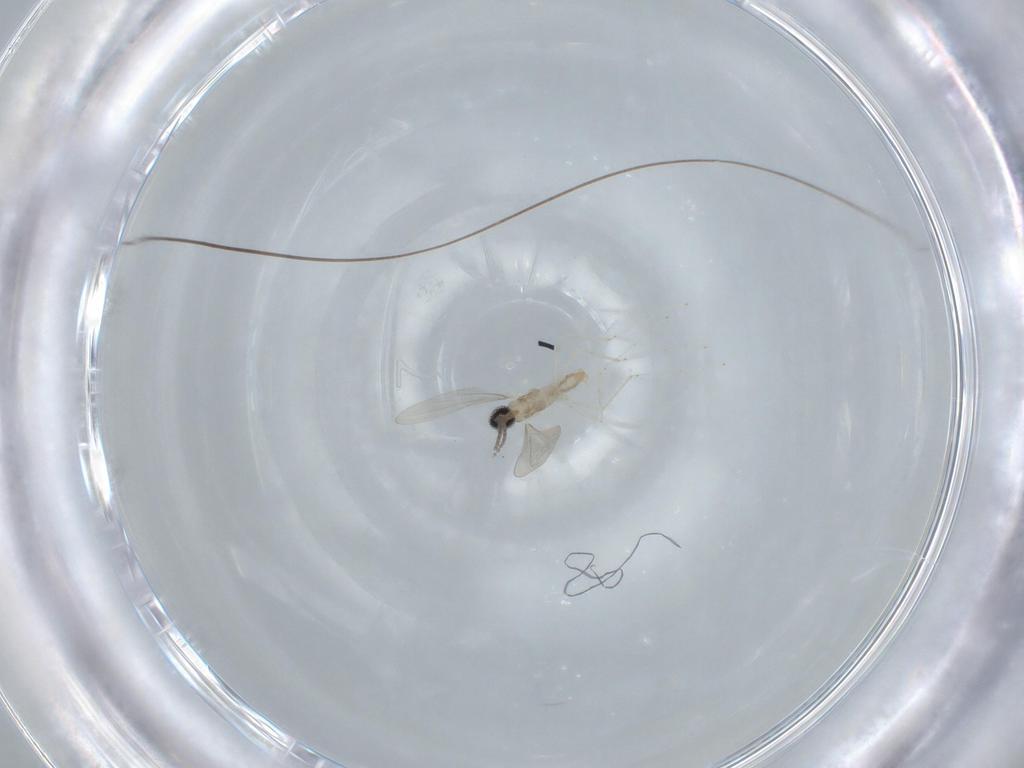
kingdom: Animalia
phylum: Arthropoda
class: Insecta
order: Diptera
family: Cecidomyiidae
